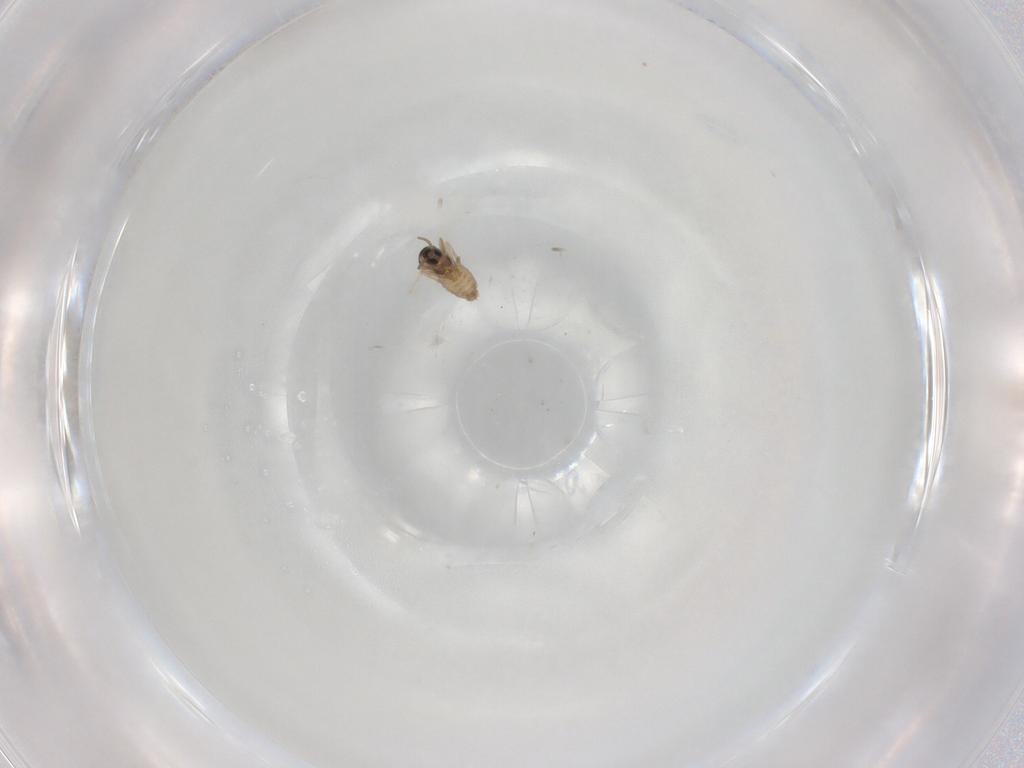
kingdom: Animalia
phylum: Arthropoda
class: Insecta
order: Diptera
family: Cecidomyiidae
